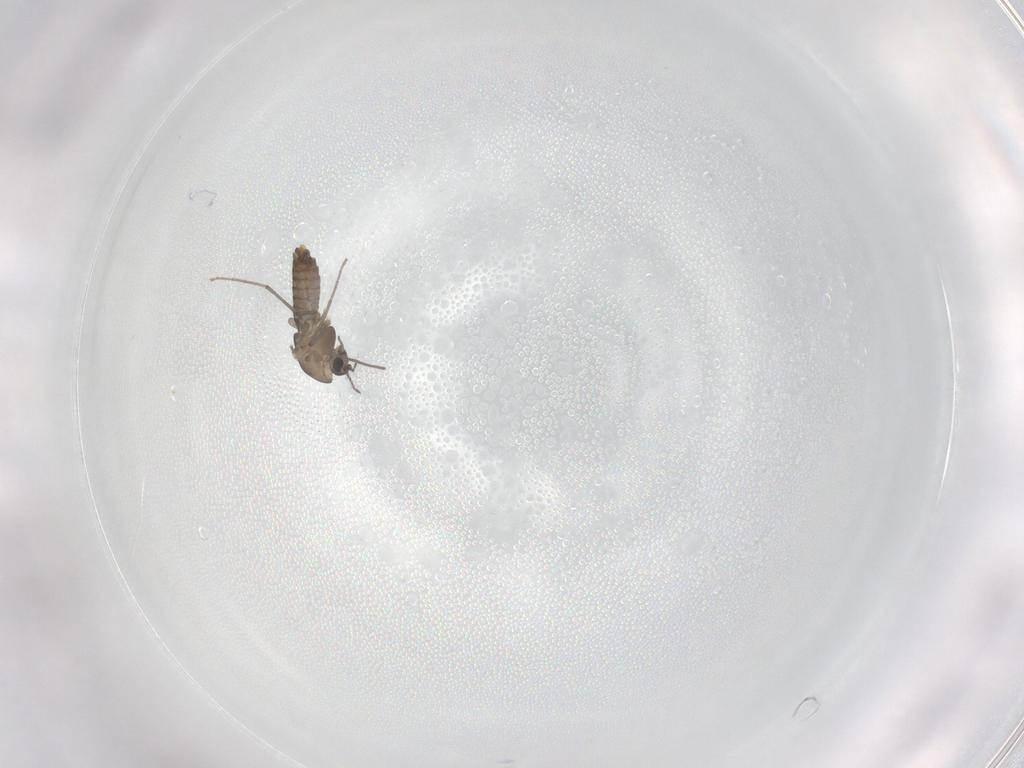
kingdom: Animalia
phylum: Arthropoda
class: Insecta
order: Diptera
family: Chironomidae
